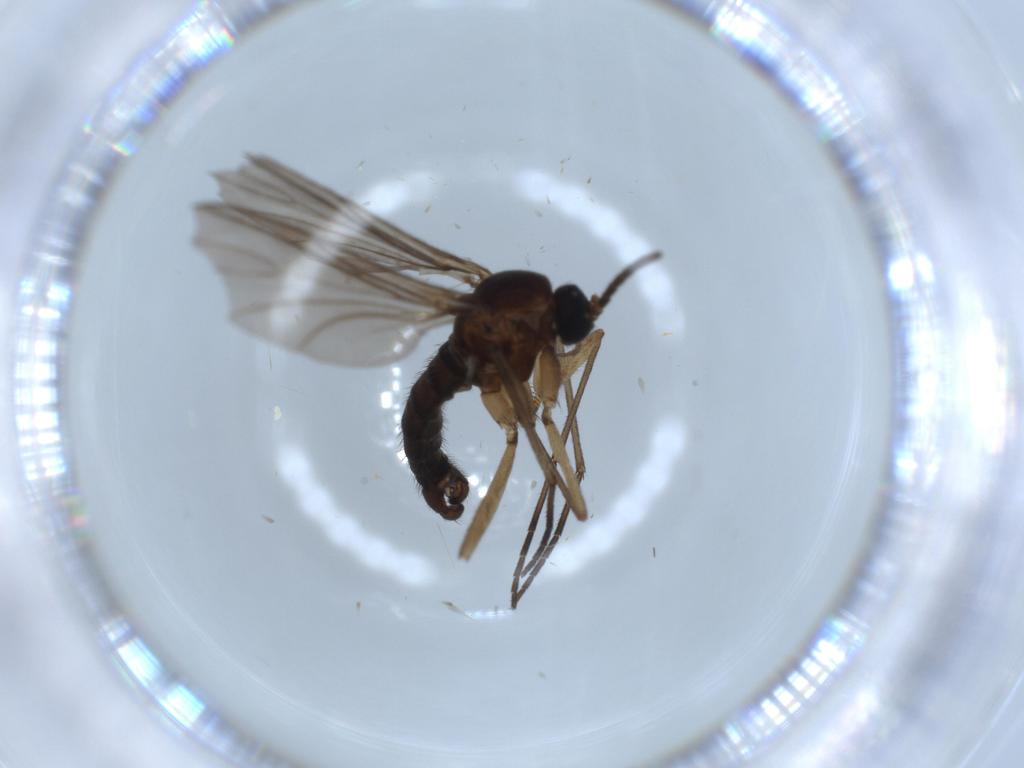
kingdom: Animalia
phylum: Arthropoda
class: Insecta
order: Diptera
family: Sciaridae
